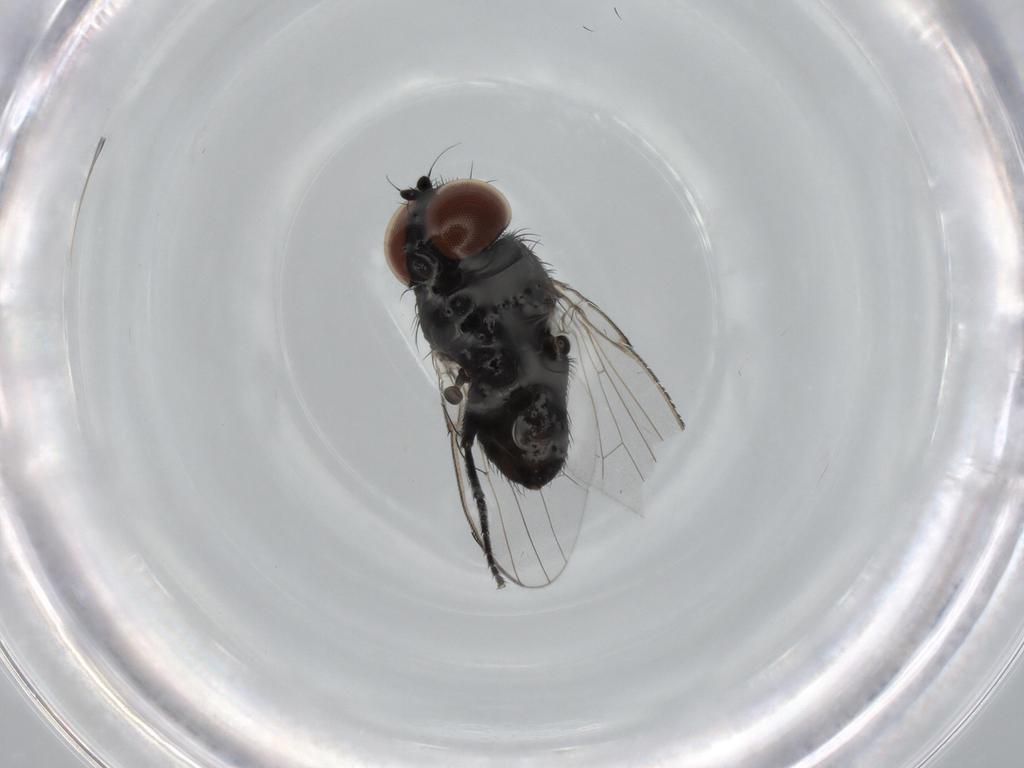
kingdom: Animalia
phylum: Arthropoda
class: Insecta
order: Diptera
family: Milichiidae
